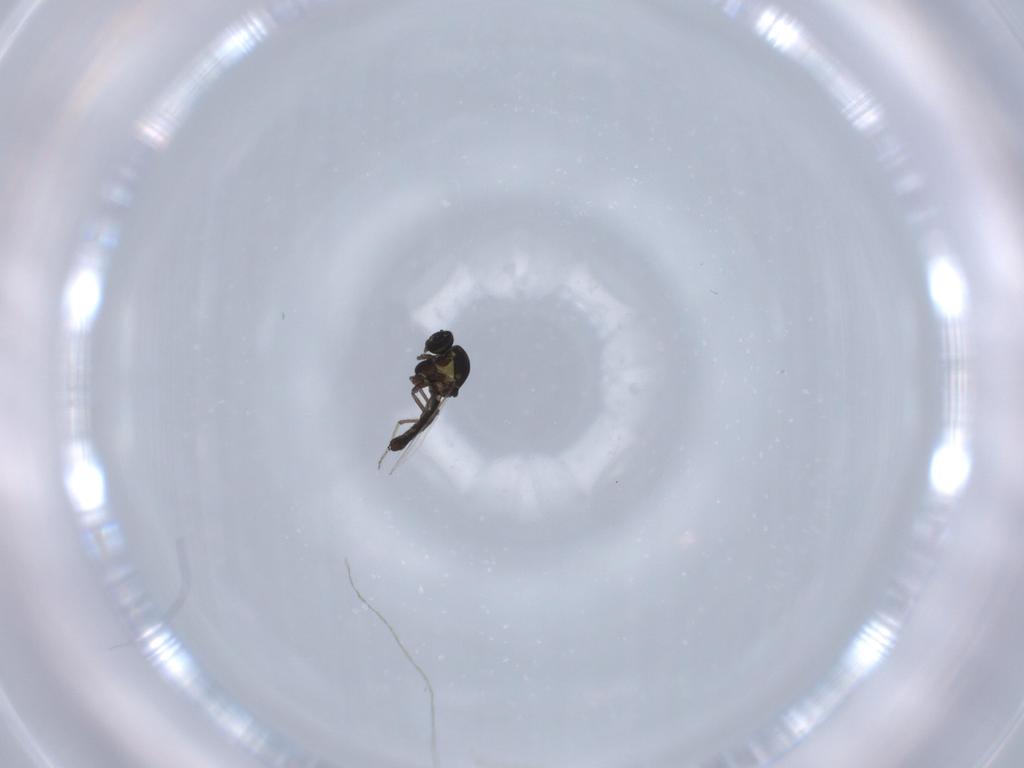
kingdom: Animalia
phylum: Arthropoda
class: Insecta
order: Diptera
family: Ceratopogonidae
